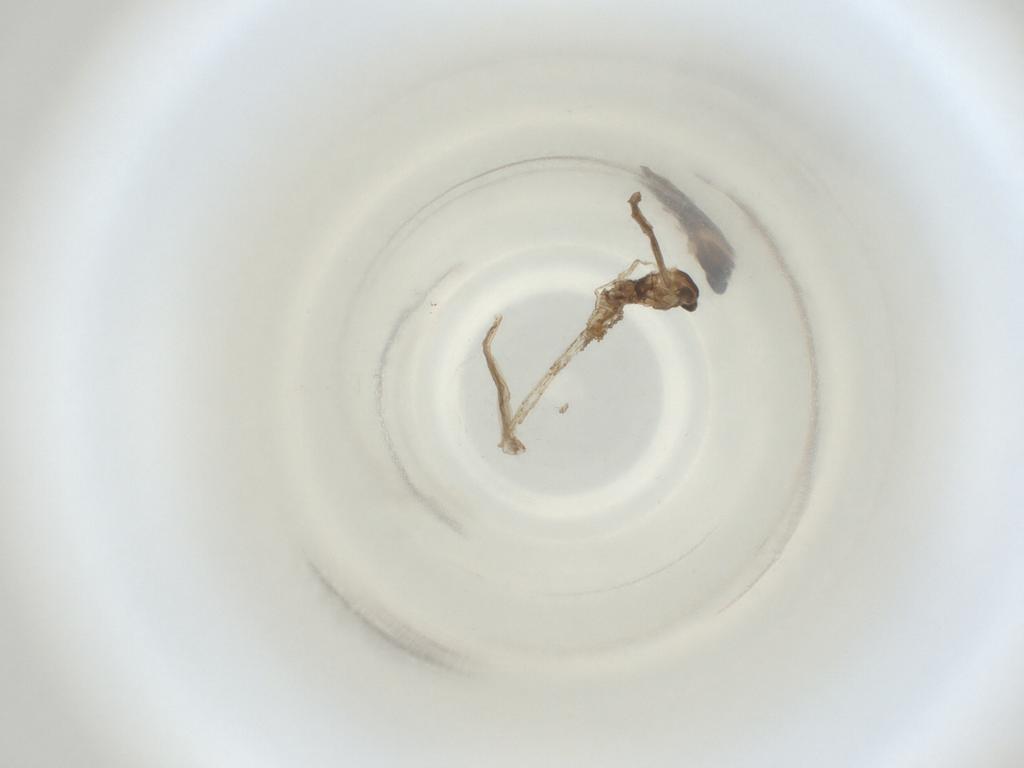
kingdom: Animalia
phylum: Arthropoda
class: Insecta
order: Diptera
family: Cecidomyiidae
